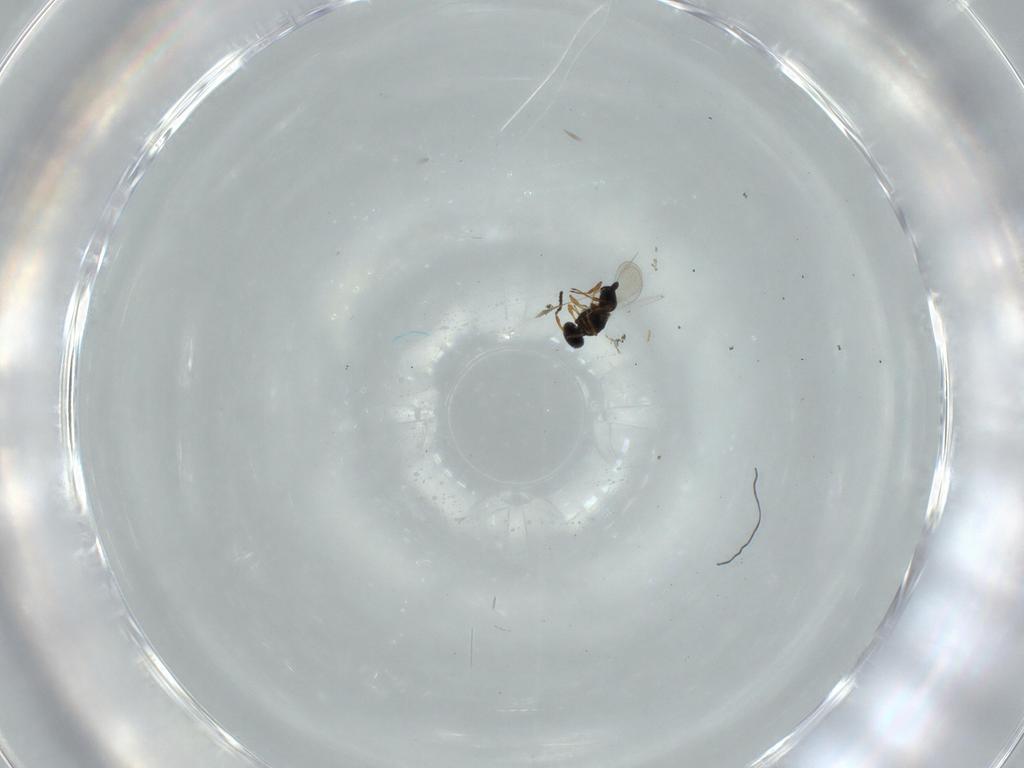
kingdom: Animalia
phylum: Arthropoda
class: Insecta
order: Hymenoptera
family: Platygastridae
